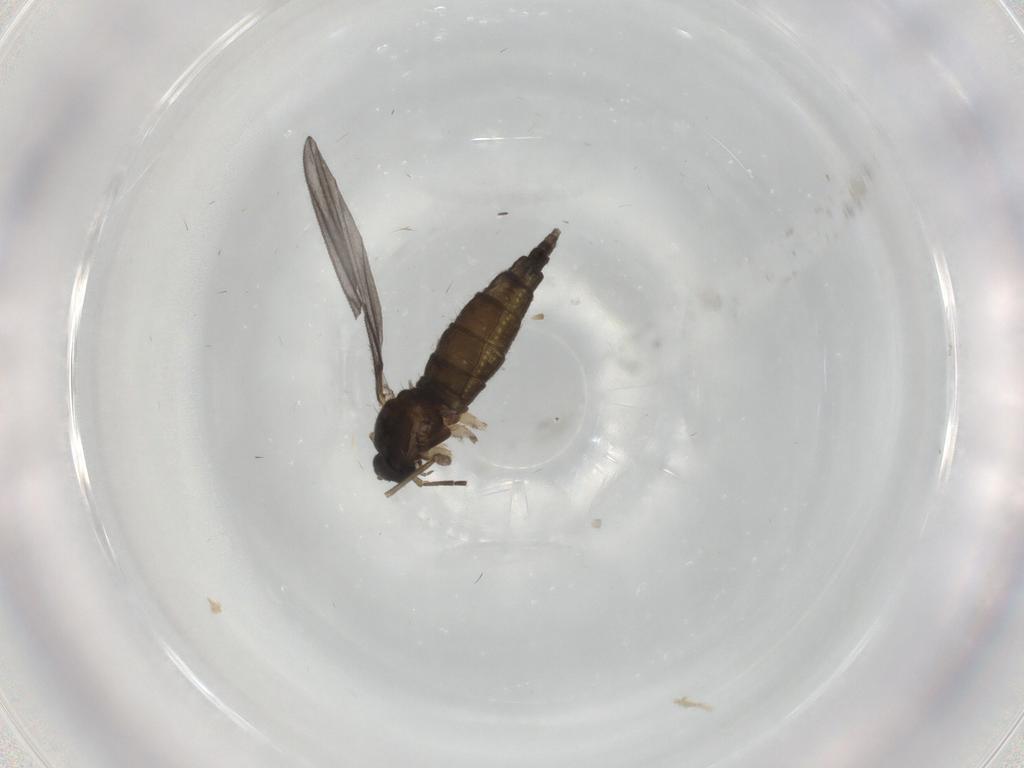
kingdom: Animalia
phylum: Arthropoda
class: Insecta
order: Diptera
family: Sciaridae
